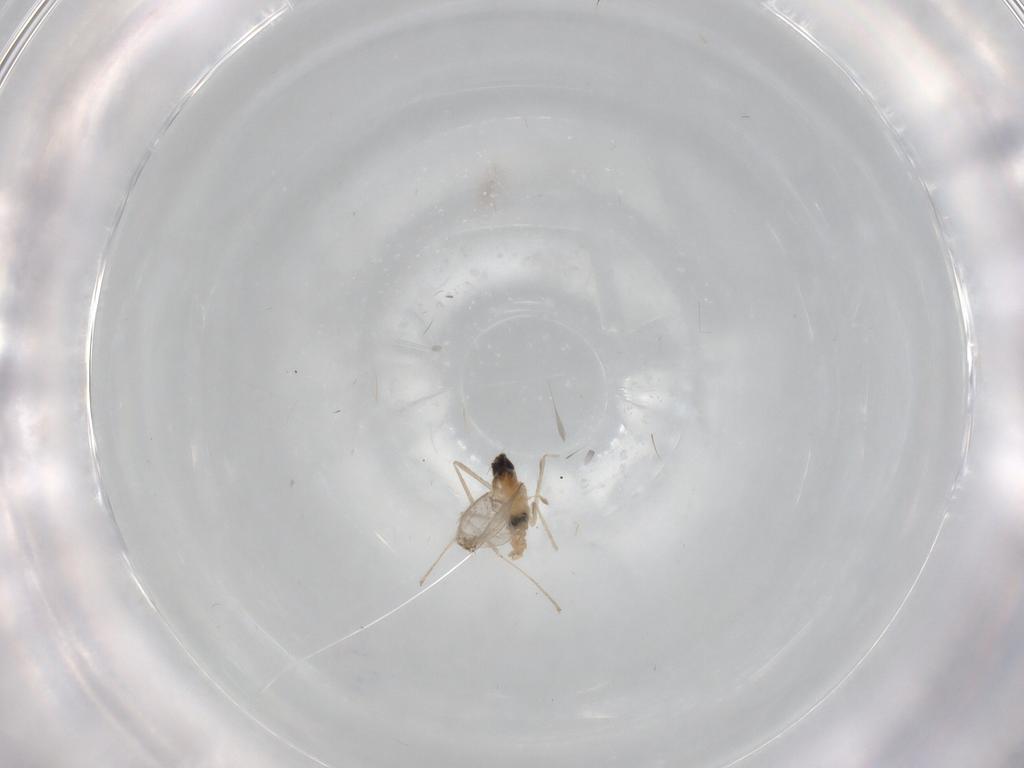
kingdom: Animalia
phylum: Arthropoda
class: Insecta
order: Diptera
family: Cecidomyiidae
